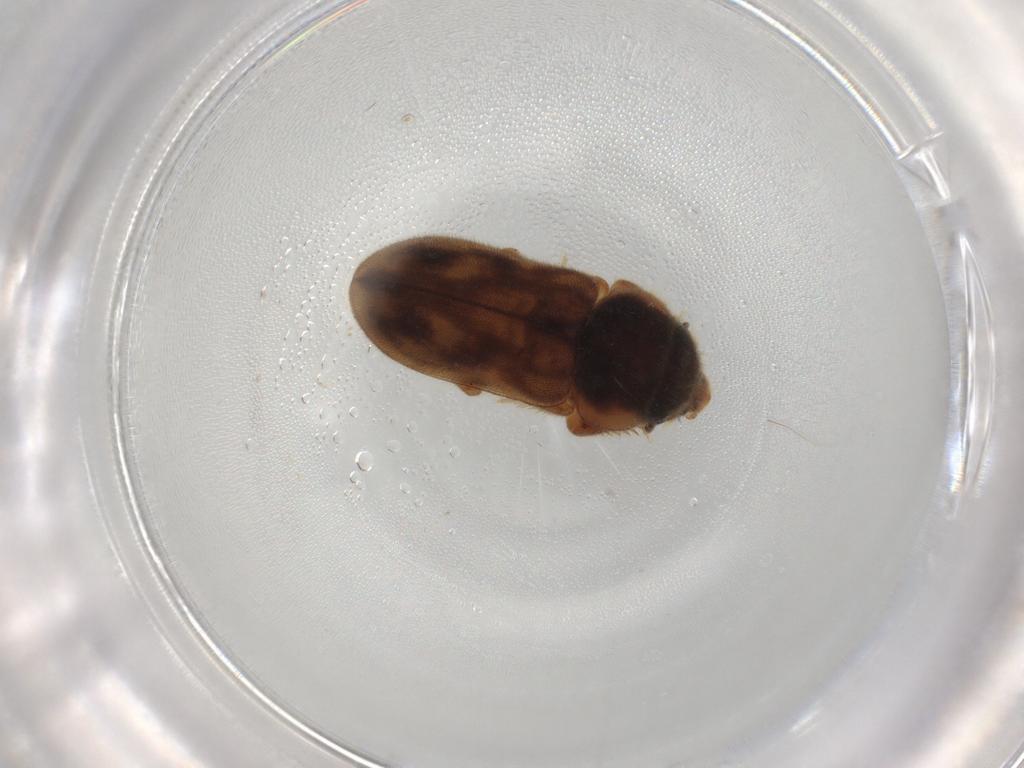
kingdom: Animalia
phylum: Arthropoda
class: Insecta
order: Coleoptera
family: Heteroceridae
